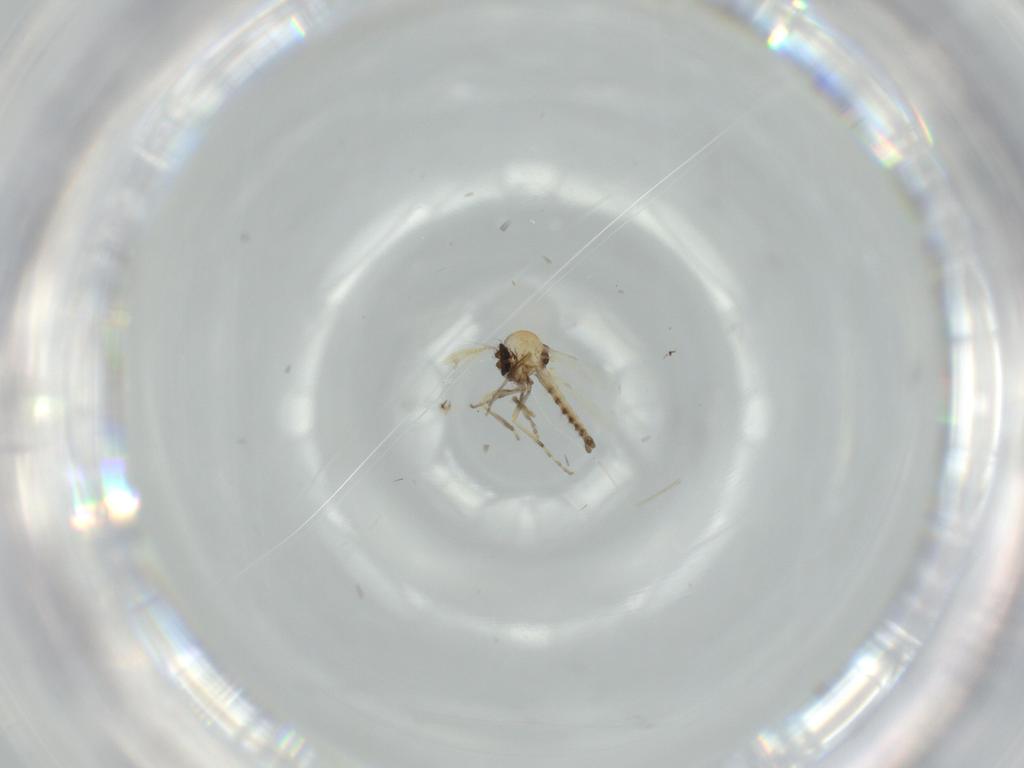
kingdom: Animalia
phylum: Arthropoda
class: Insecta
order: Diptera
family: Cecidomyiidae
